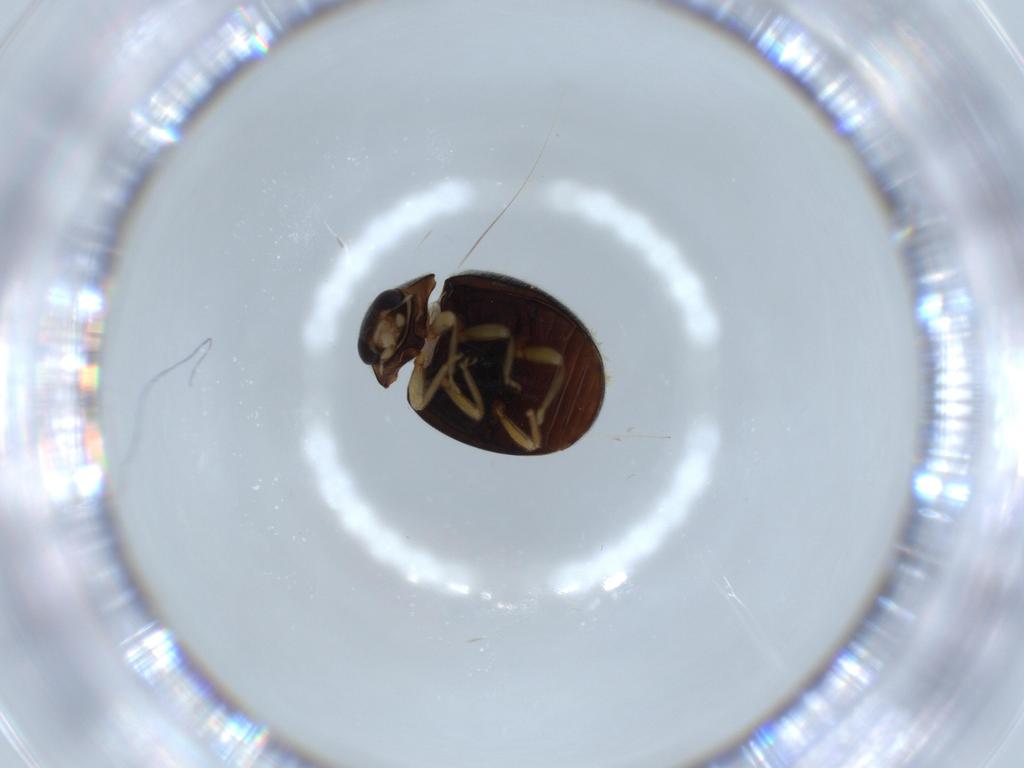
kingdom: Animalia
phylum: Arthropoda
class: Insecta
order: Coleoptera
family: Coccinellidae
